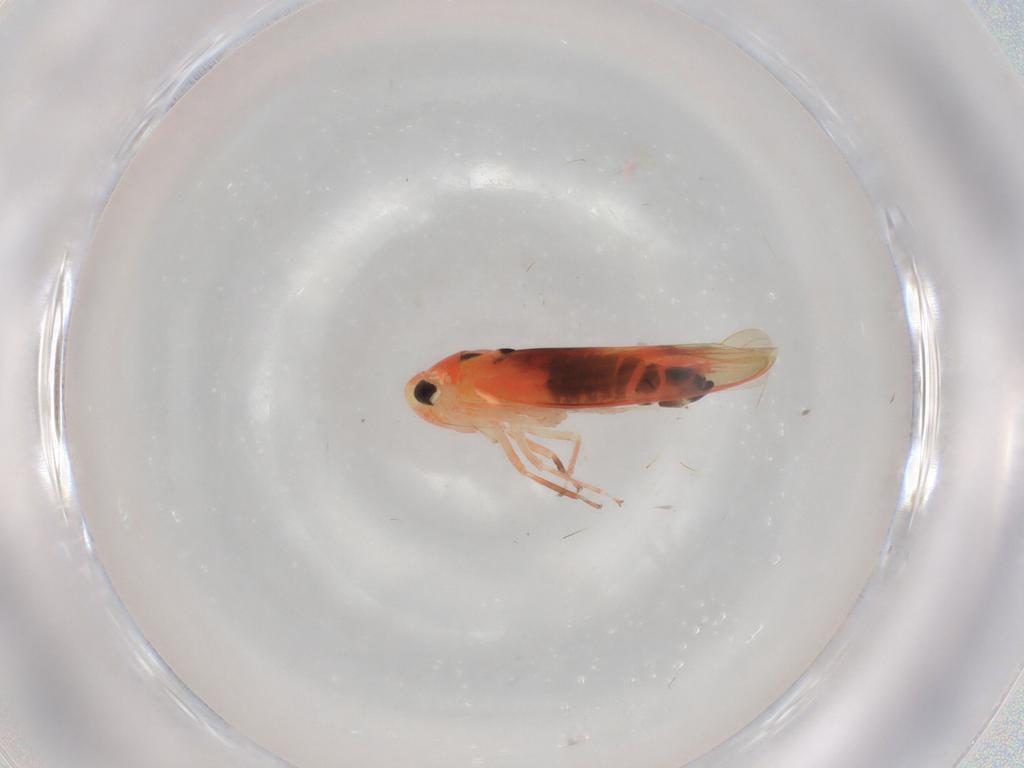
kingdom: Animalia
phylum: Arthropoda
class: Insecta
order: Hemiptera
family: Cicadellidae
